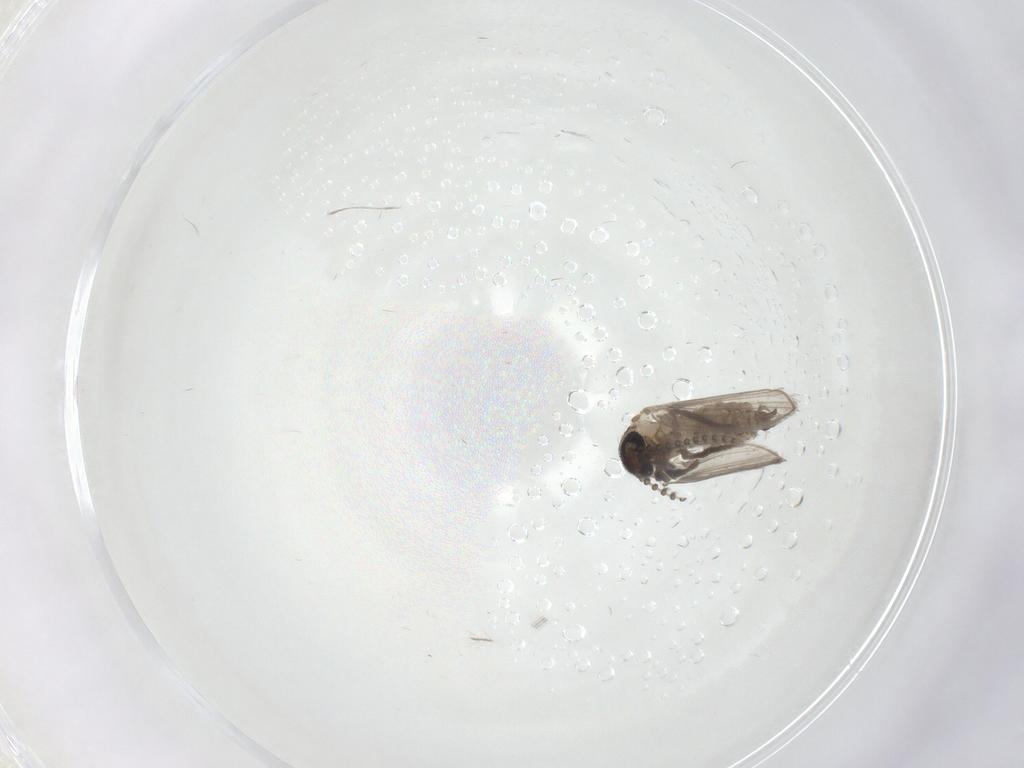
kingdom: Animalia
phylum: Arthropoda
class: Insecta
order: Diptera
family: Psychodidae
